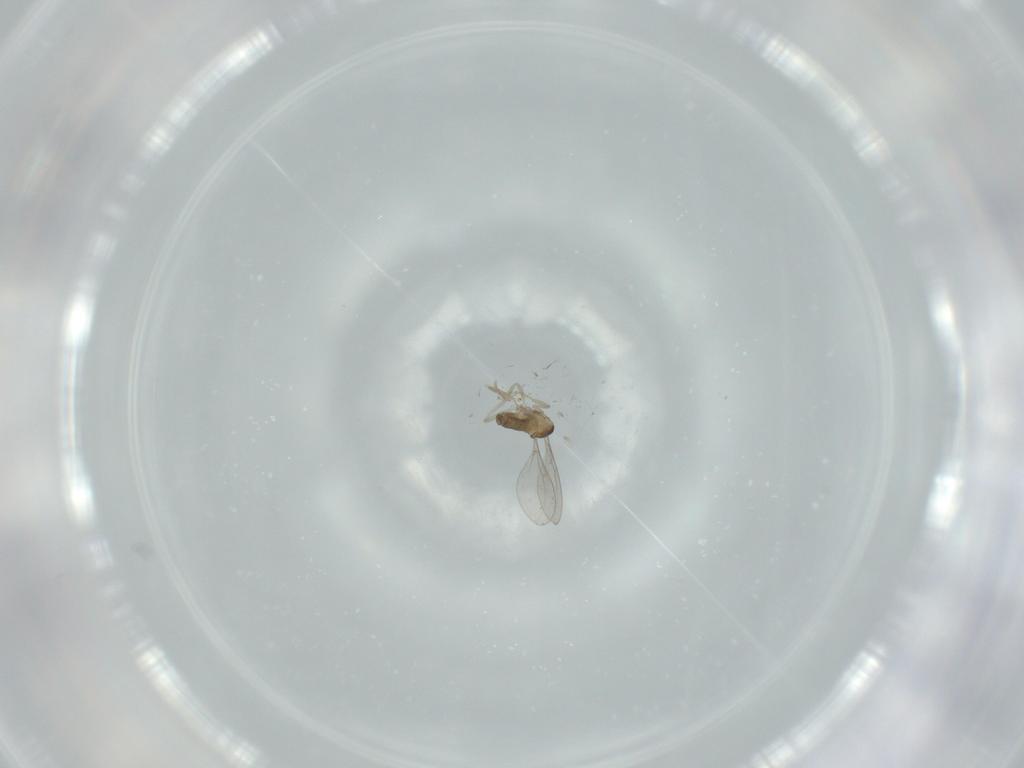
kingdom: Animalia
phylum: Arthropoda
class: Insecta
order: Diptera
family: Cecidomyiidae
